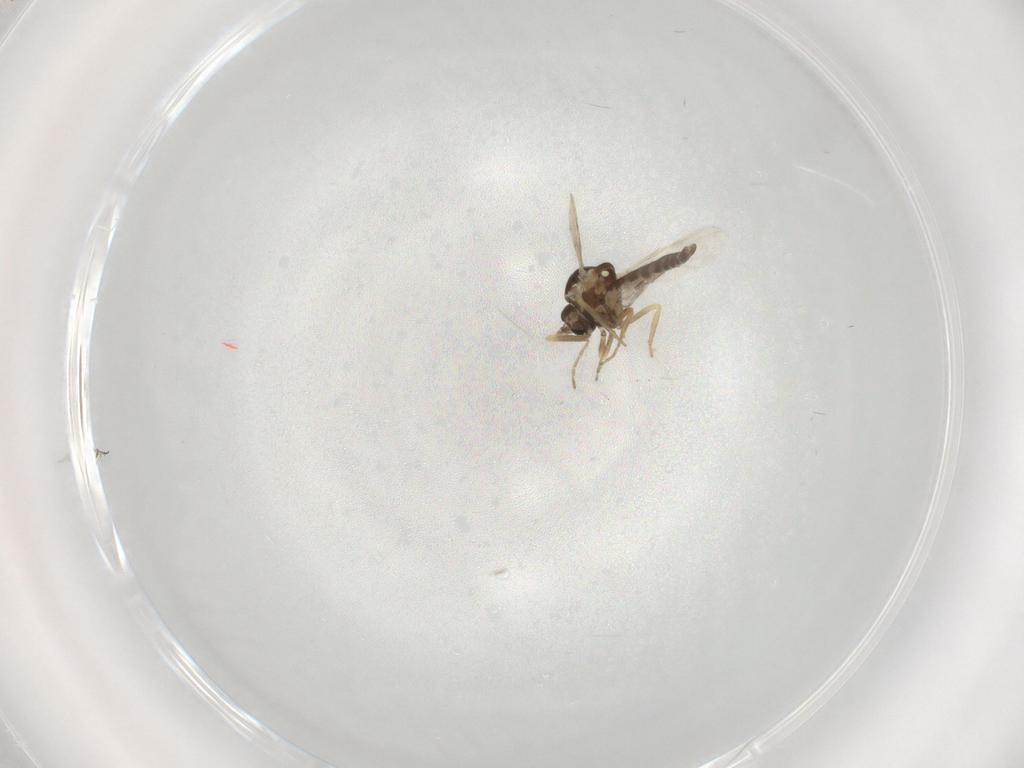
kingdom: Animalia
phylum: Arthropoda
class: Insecta
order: Diptera
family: Ceratopogonidae
